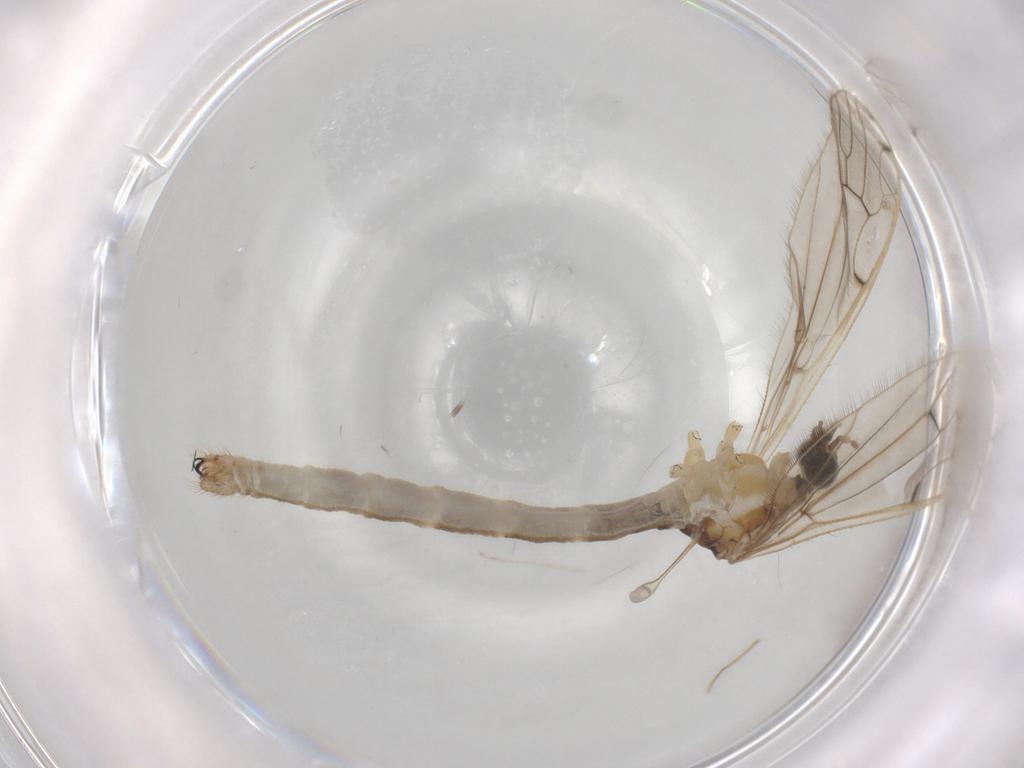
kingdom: Animalia
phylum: Arthropoda
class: Insecta
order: Diptera
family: Limoniidae
